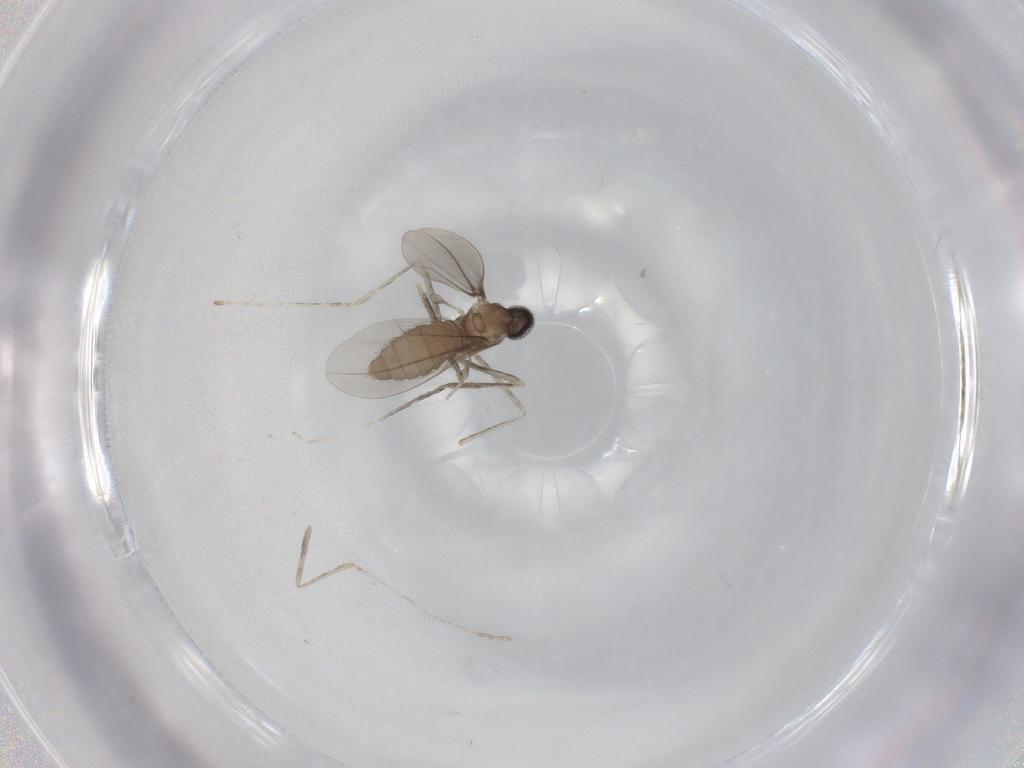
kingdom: Animalia
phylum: Arthropoda
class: Insecta
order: Diptera
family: Cecidomyiidae
